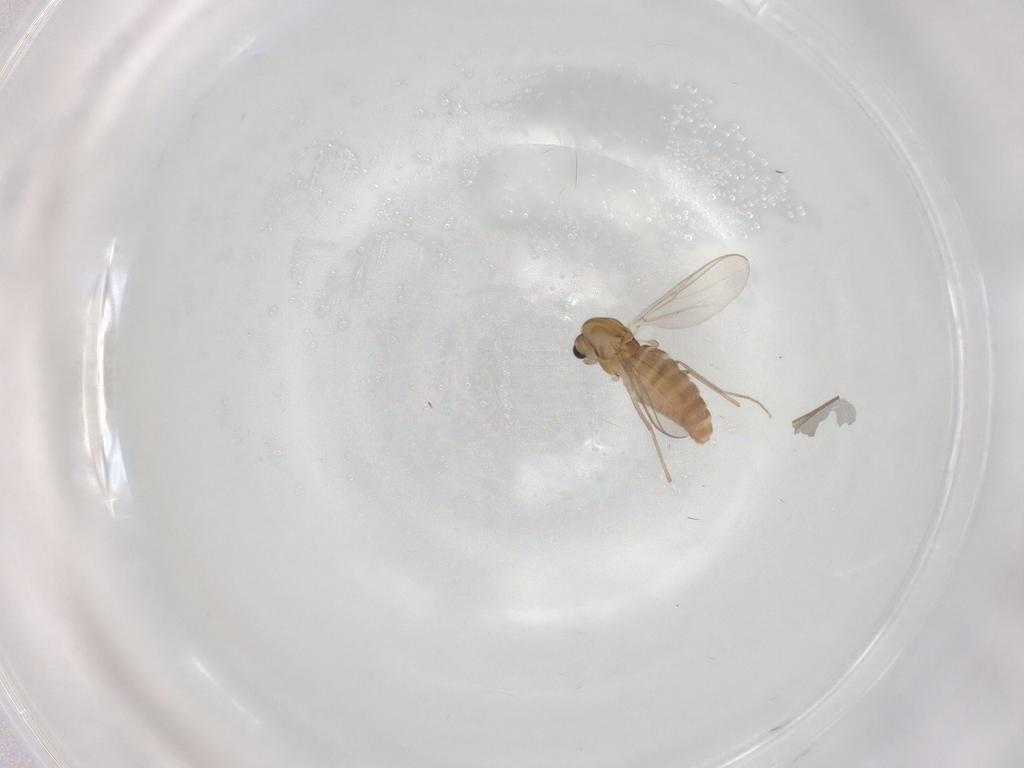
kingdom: Animalia
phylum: Arthropoda
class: Insecta
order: Diptera
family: Chironomidae
